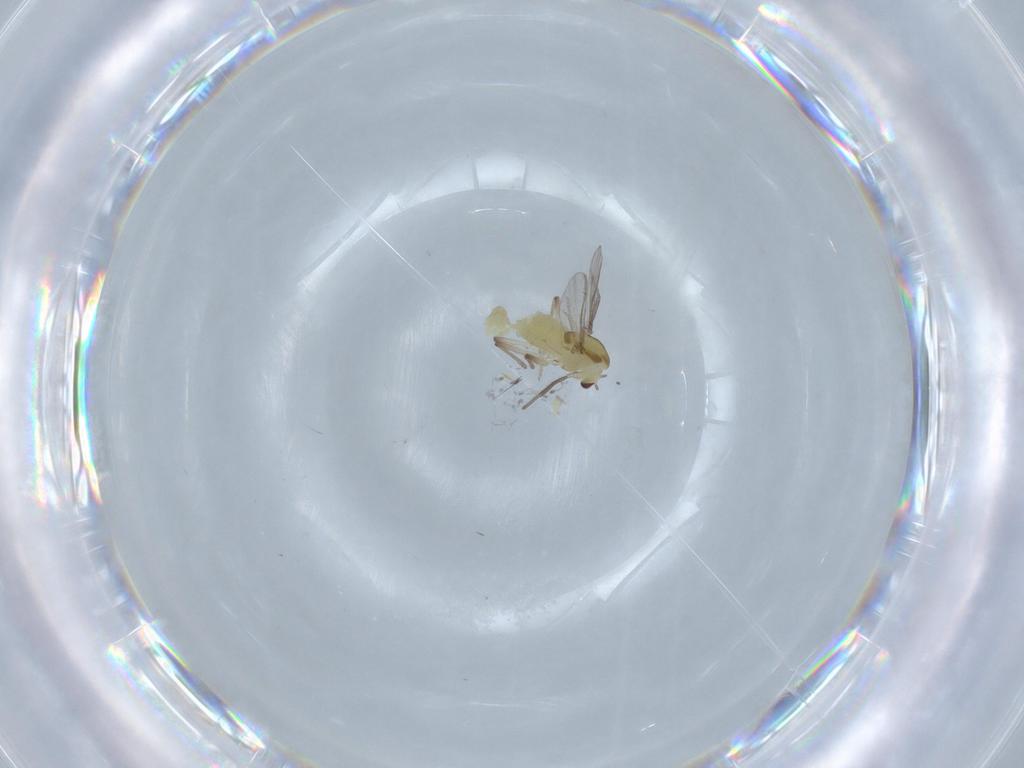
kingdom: Animalia
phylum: Arthropoda
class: Insecta
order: Diptera
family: Chironomidae
